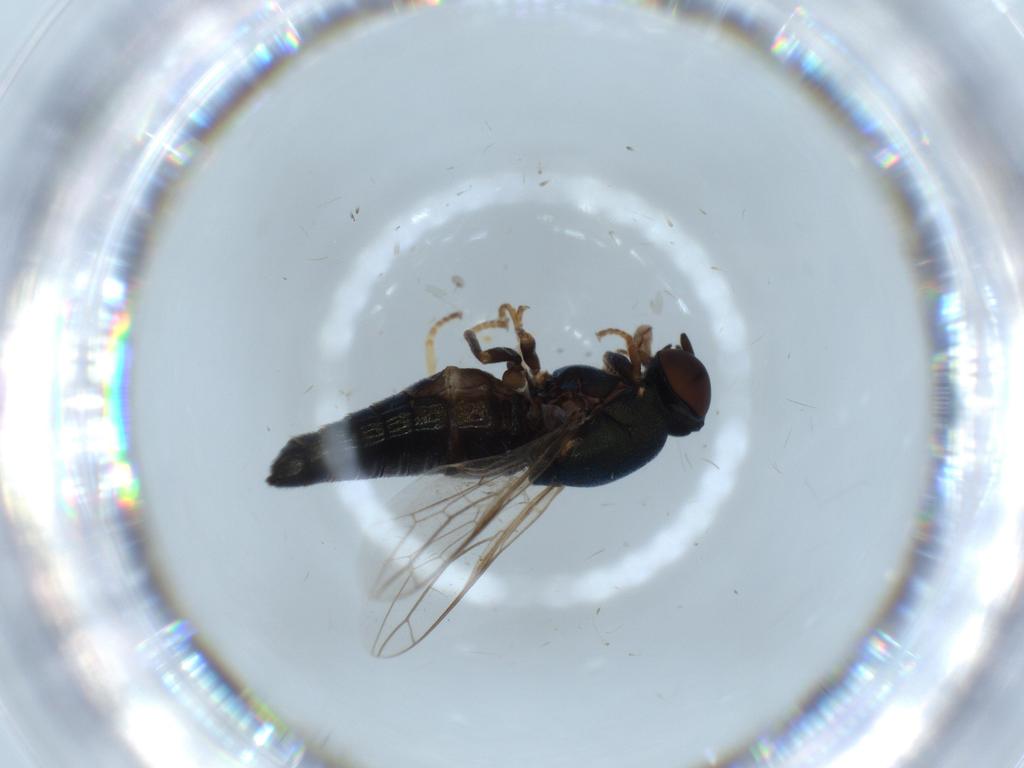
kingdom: Animalia
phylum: Arthropoda
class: Insecta
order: Diptera
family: Scenopinidae
